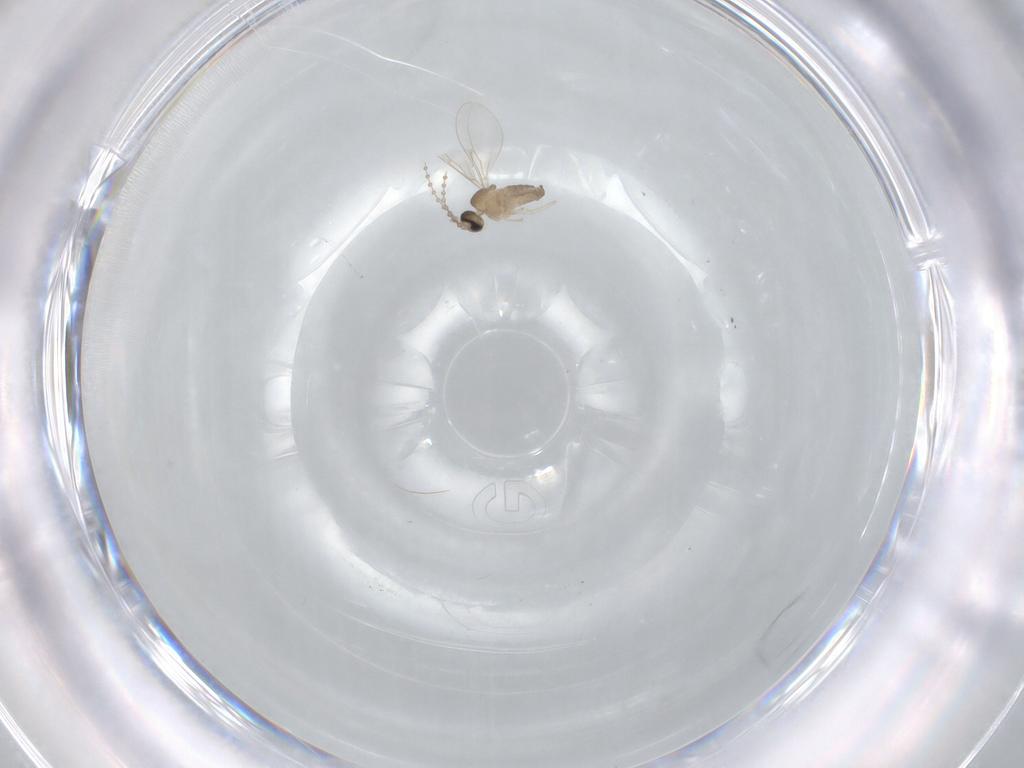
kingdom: Animalia
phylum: Arthropoda
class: Insecta
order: Diptera
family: Cecidomyiidae
